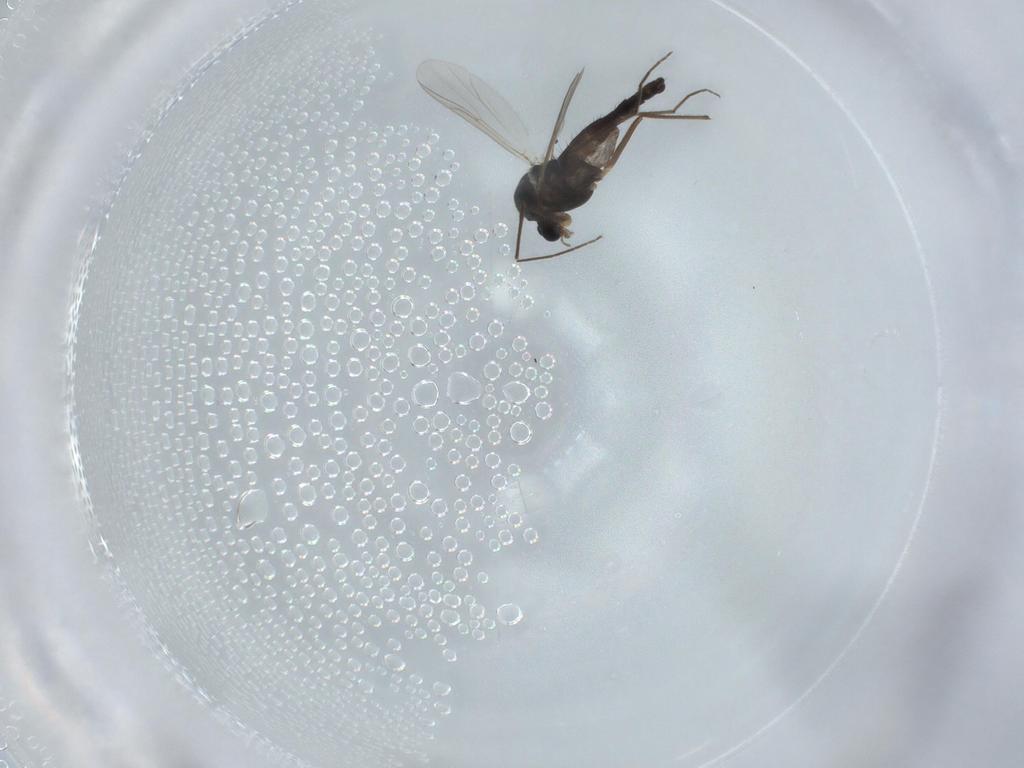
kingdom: Animalia
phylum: Arthropoda
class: Insecta
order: Diptera
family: Chironomidae
